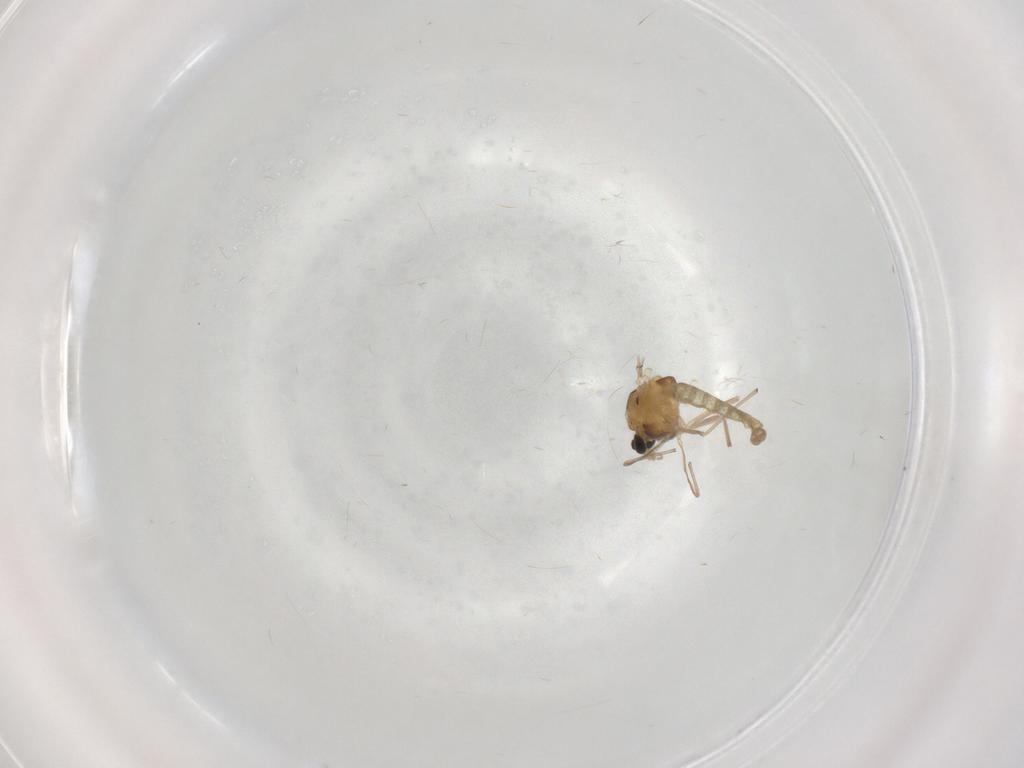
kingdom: Animalia
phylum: Arthropoda
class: Insecta
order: Diptera
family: Chironomidae
